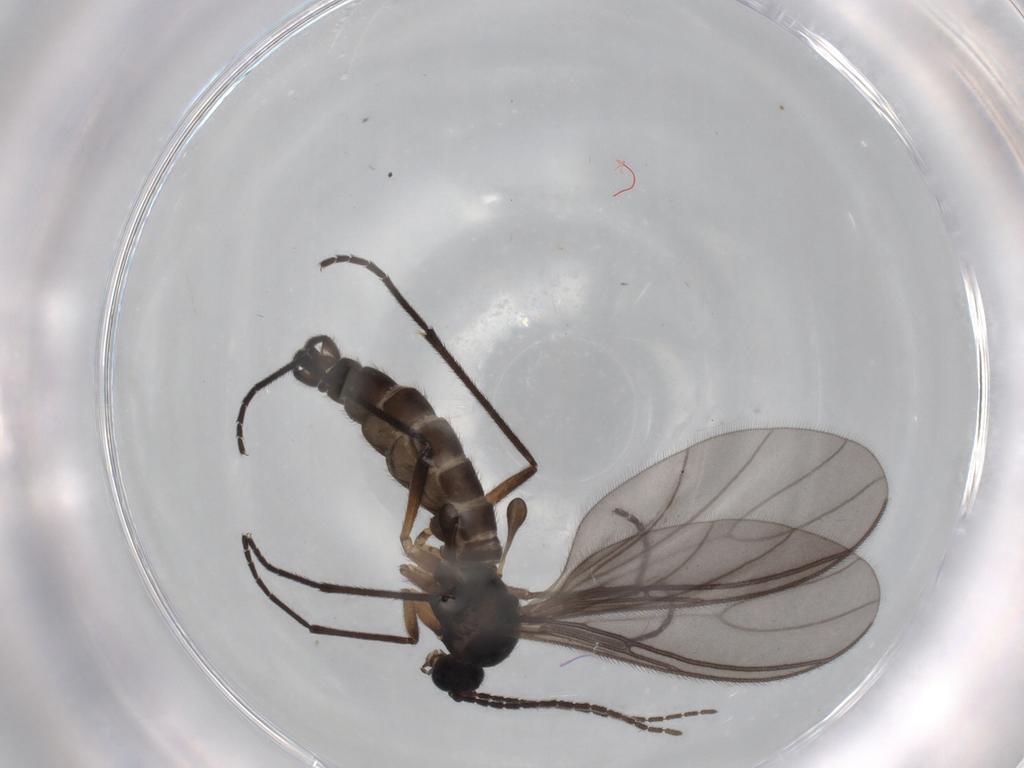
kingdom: Animalia
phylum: Arthropoda
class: Insecta
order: Diptera
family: Sciaridae
